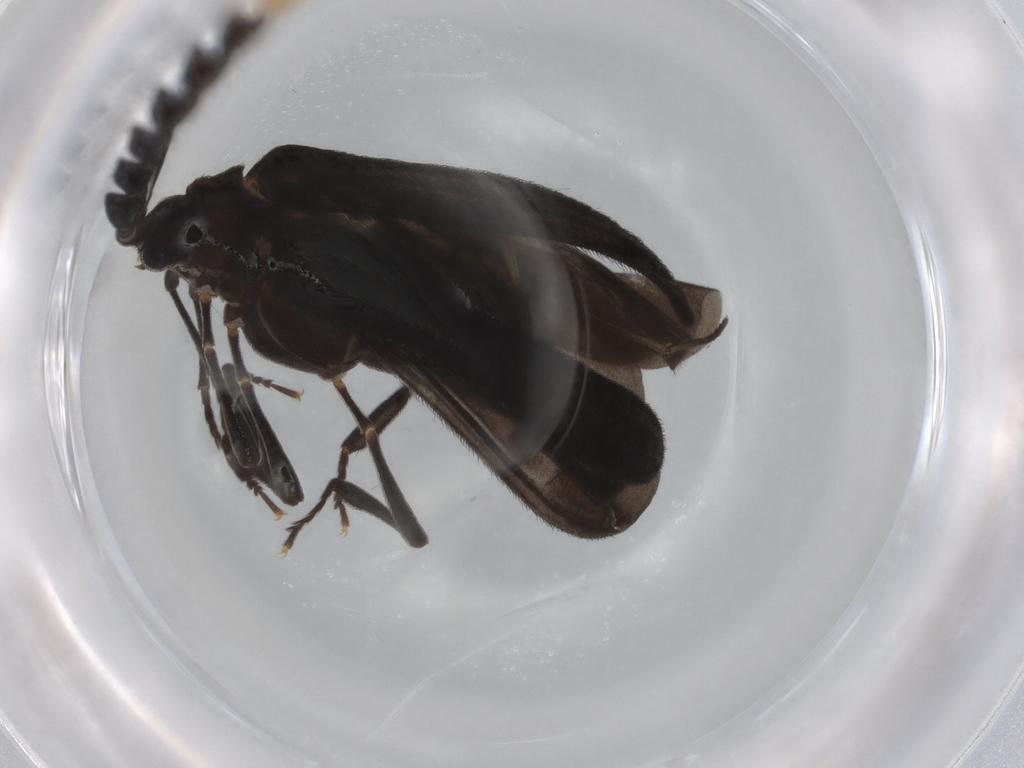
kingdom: Animalia
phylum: Arthropoda
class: Insecta
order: Coleoptera
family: Lycidae
